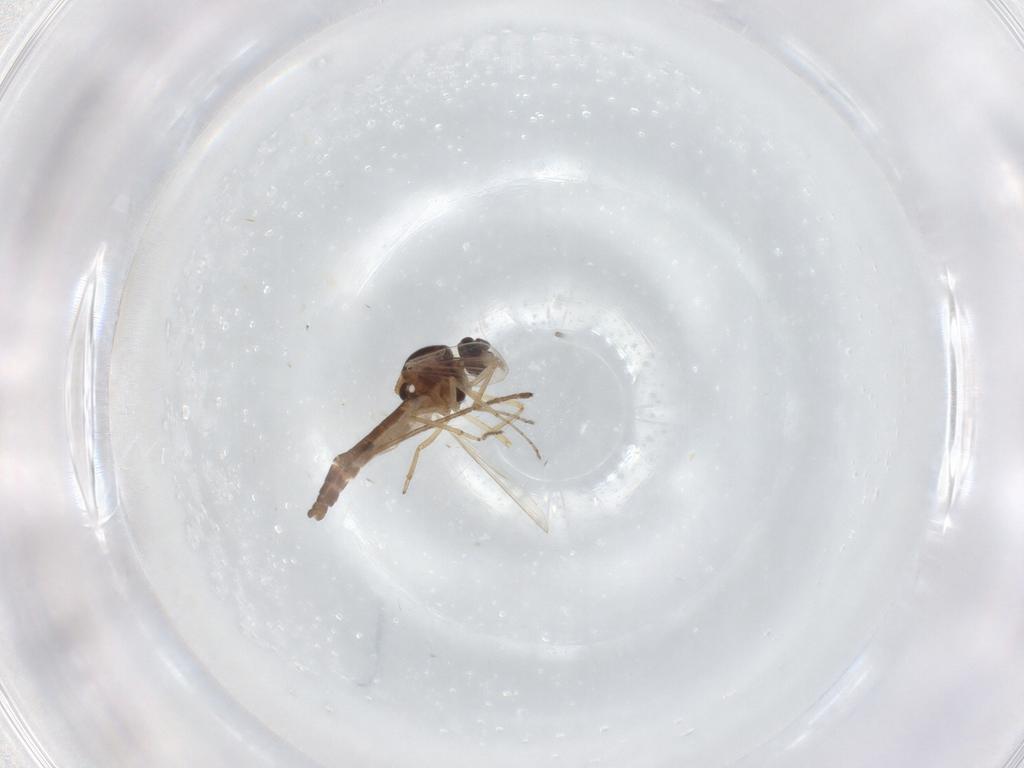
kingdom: Animalia
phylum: Arthropoda
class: Insecta
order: Diptera
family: Ceratopogonidae
